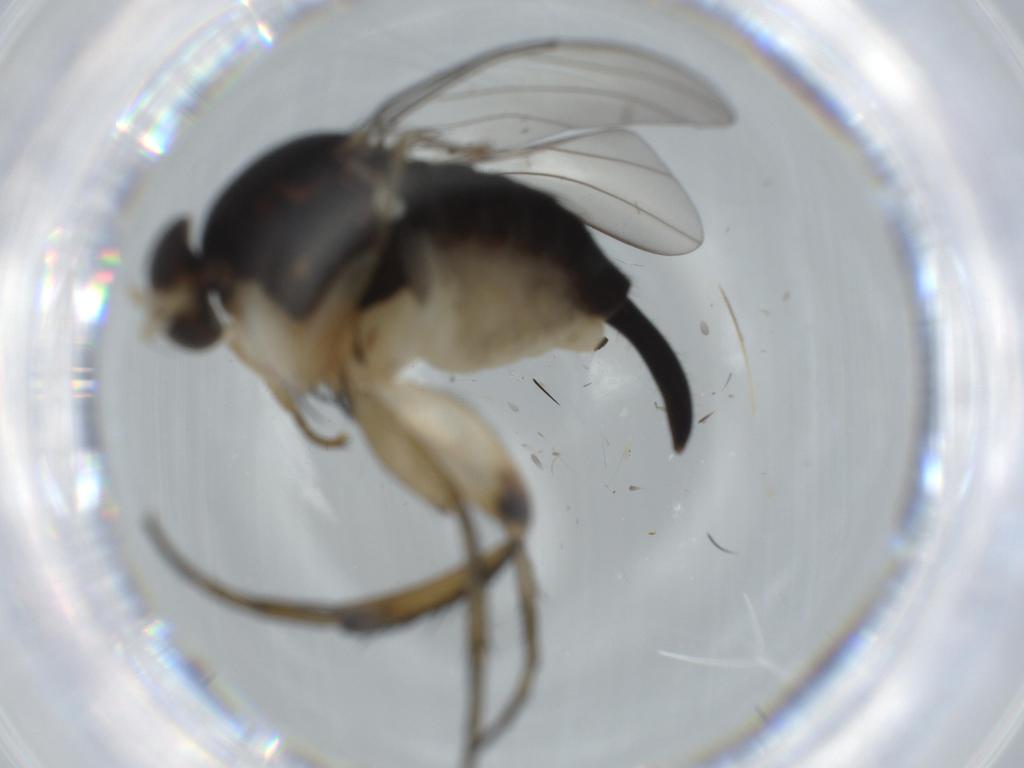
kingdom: Animalia
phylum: Arthropoda
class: Insecta
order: Diptera
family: Phoridae
